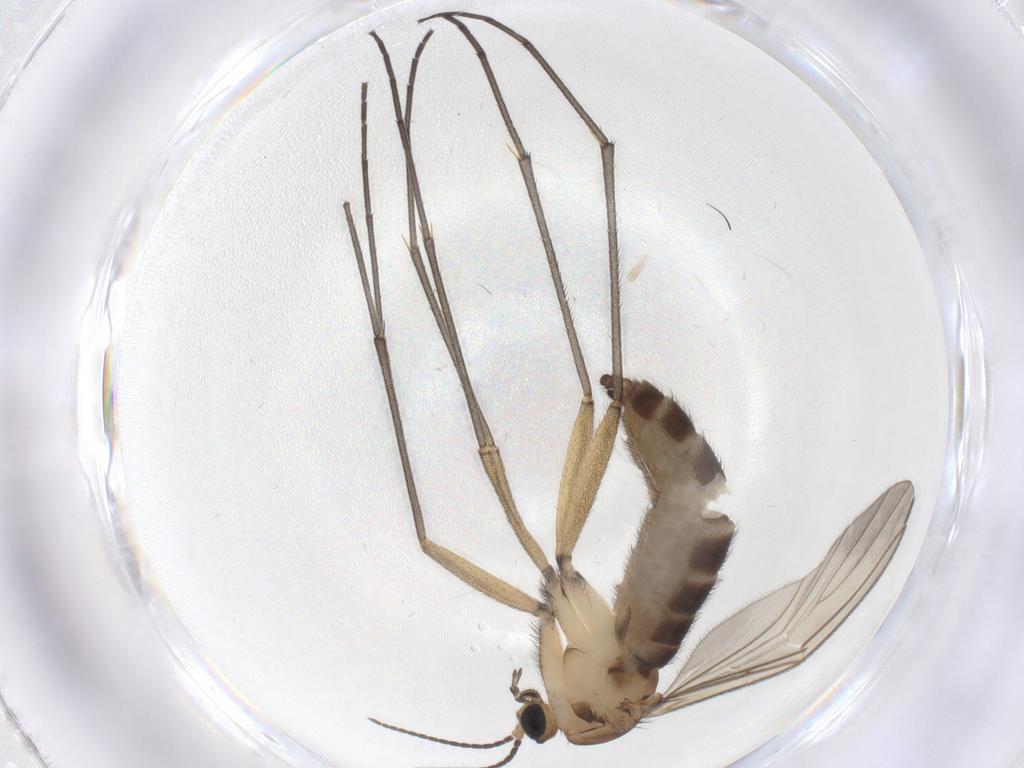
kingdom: Animalia
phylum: Arthropoda
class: Insecta
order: Diptera
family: Sciaridae
